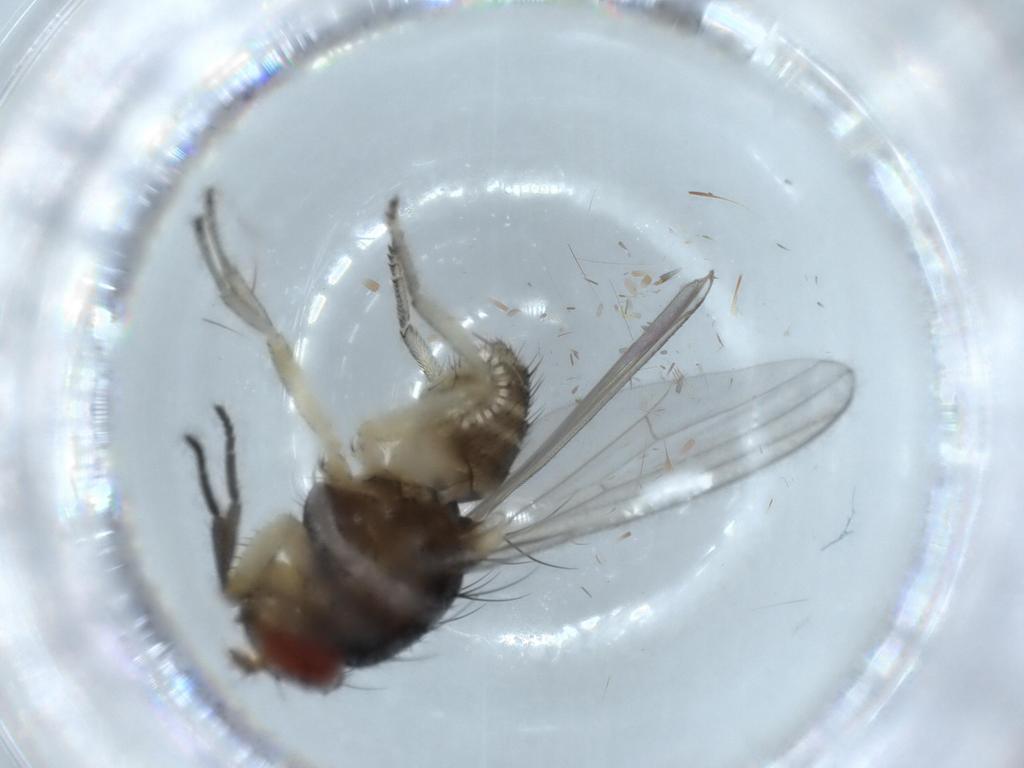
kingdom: Animalia
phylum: Arthropoda
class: Insecta
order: Diptera
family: Lauxaniidae
